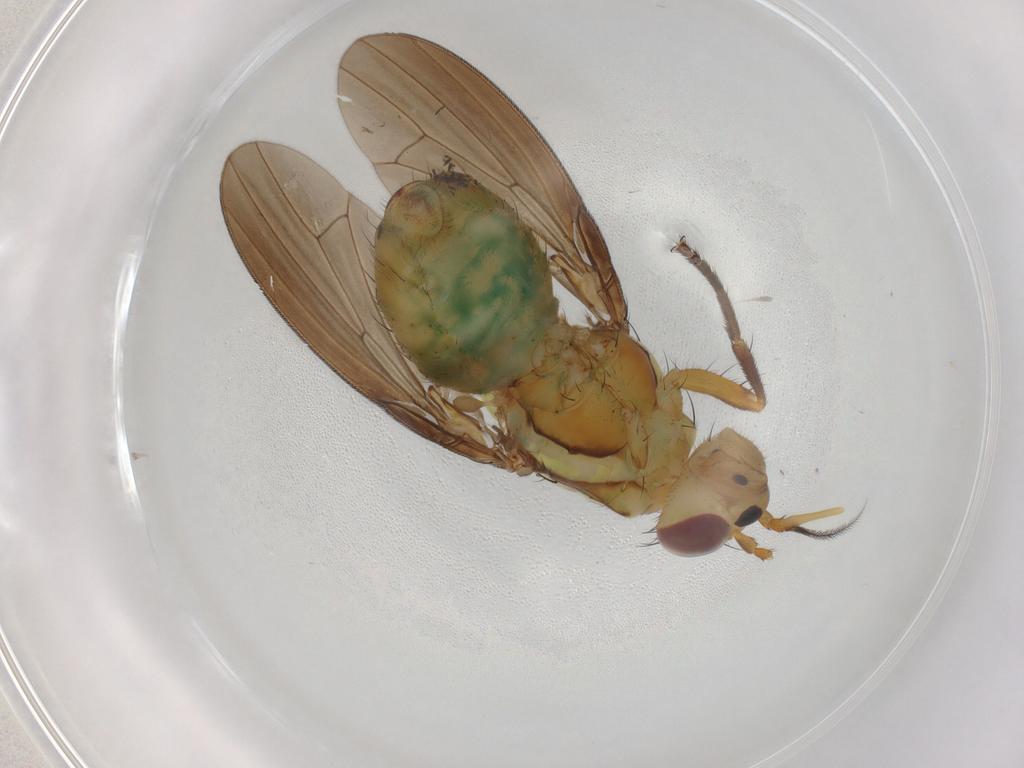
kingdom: Animalia
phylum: Arthropoda
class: Insecta
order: Diptera
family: Lauxaniidae
